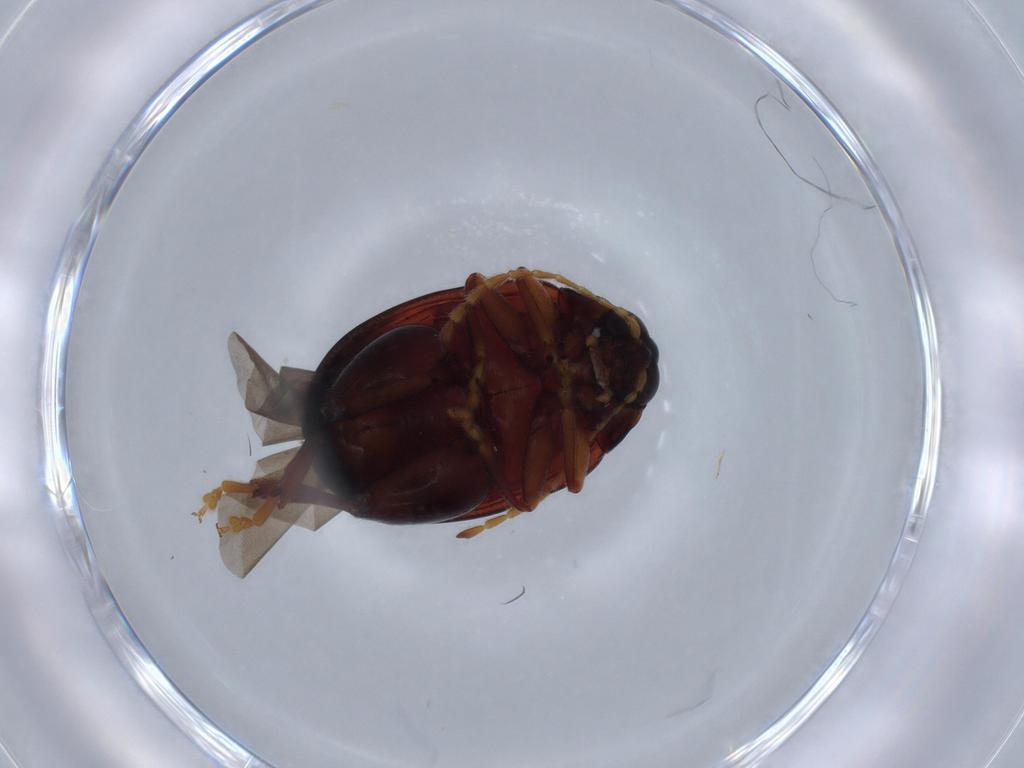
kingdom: Animalia
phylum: Arthropoda
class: Insecta
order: Coleoptera
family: Chrysomelidae
